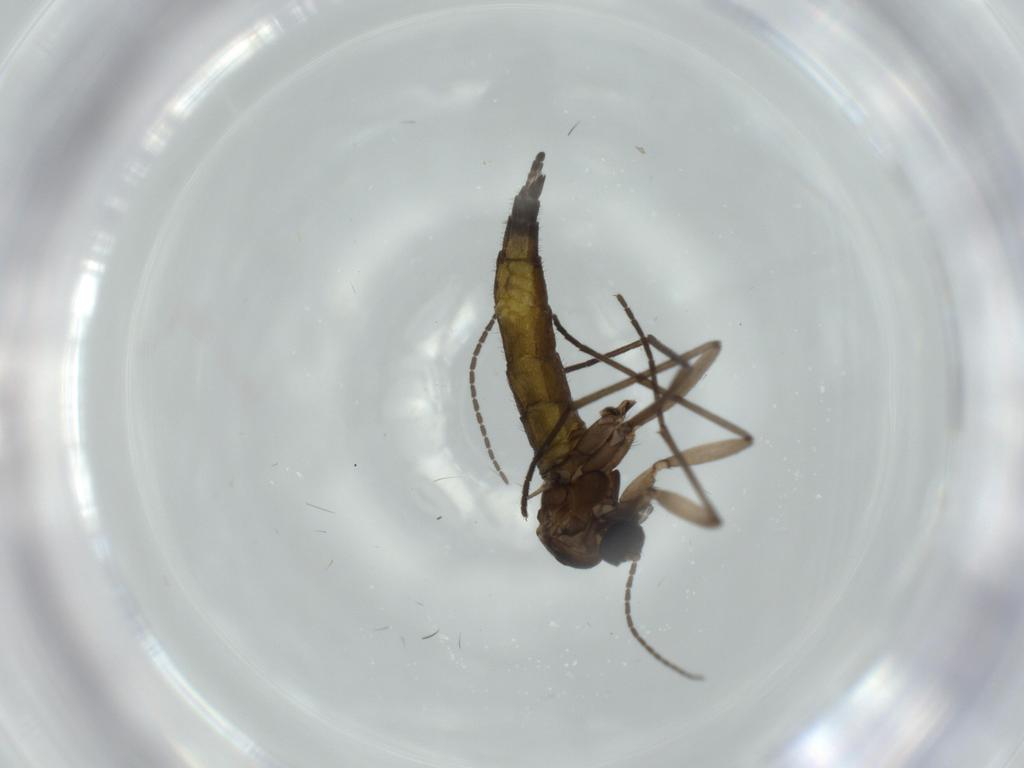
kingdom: Animalia
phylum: Arthropoda
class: Insecta
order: Diptera
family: Sciaridae
